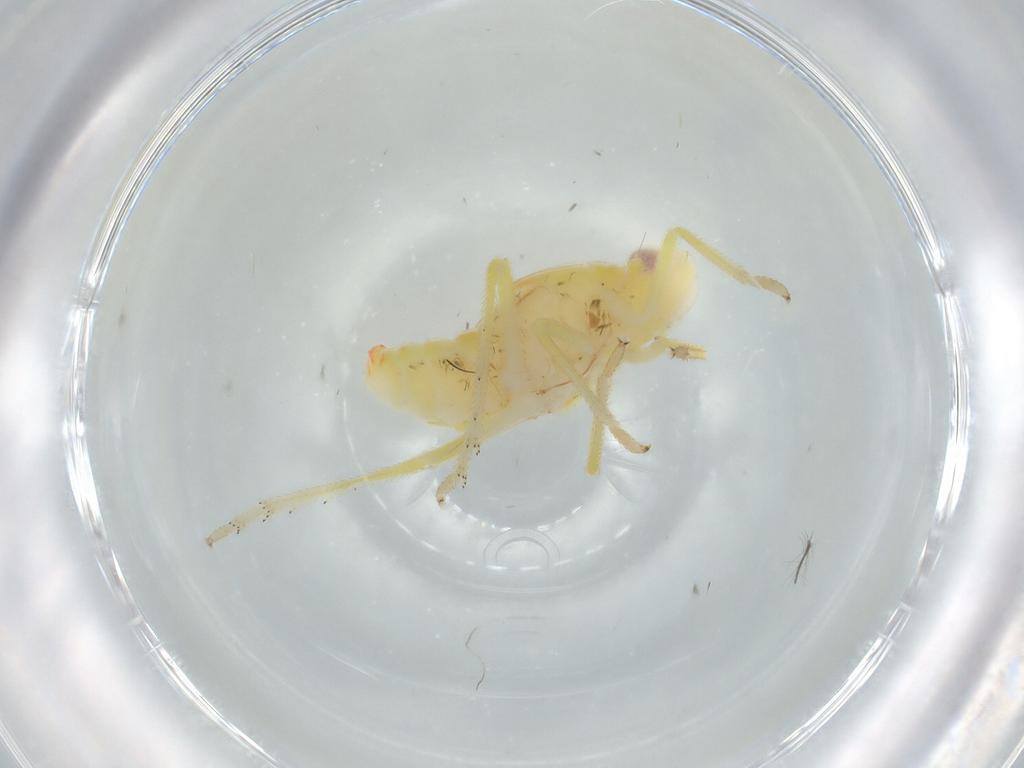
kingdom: Animalia
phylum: Arthropoda
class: Insecta
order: Hemiptera
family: Tropiduchidae
